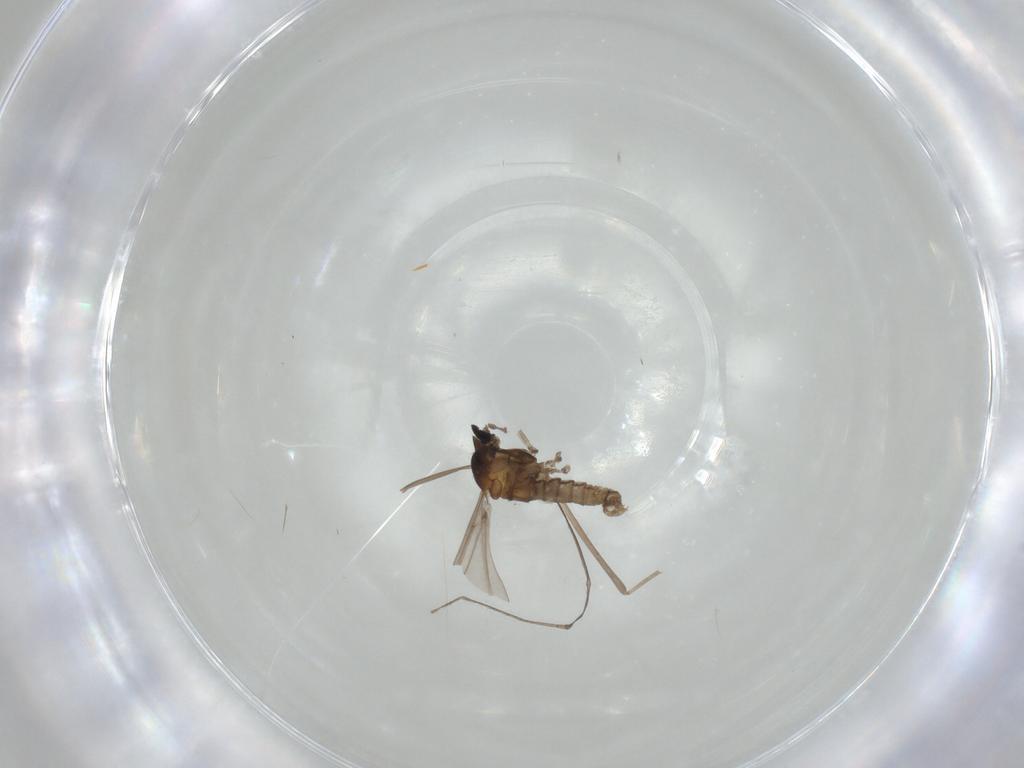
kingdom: Animalia
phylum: Arthropoda
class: Insecta
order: Diptera
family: Cecidomyiidae
